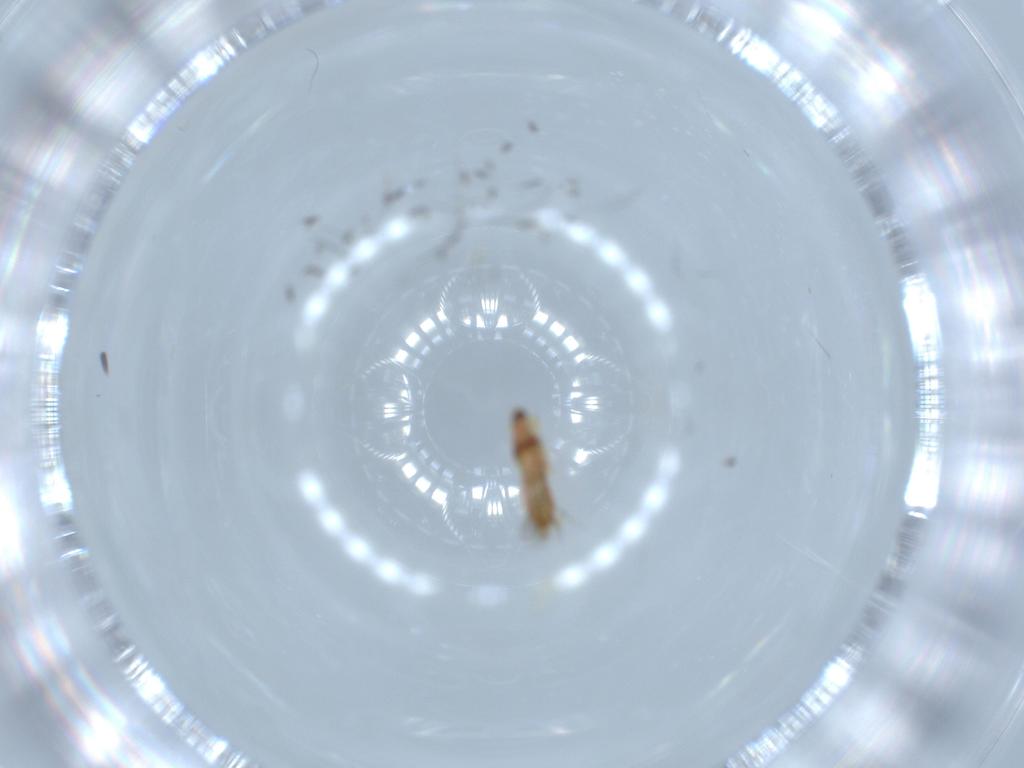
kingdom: Animalia
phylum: Arthropoda
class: Insecta
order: Thysanoptera
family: Phlaeothripidae
